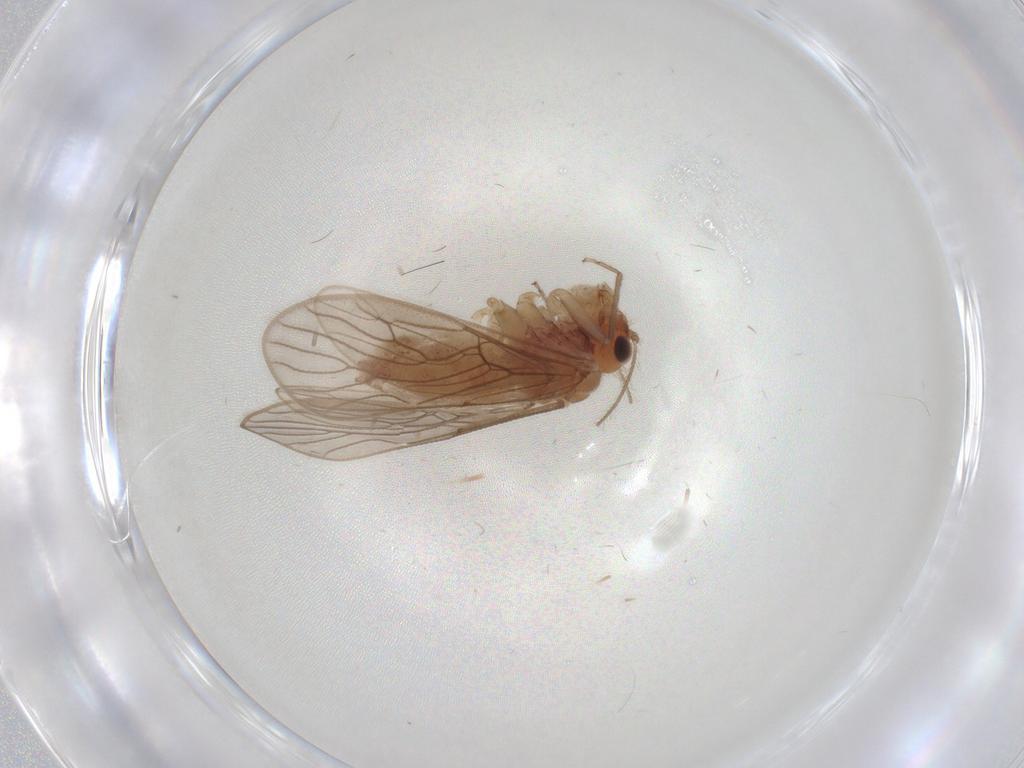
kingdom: Animalia
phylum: Arthropoda
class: Insecta
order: Psocodea
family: Epipsocidae
